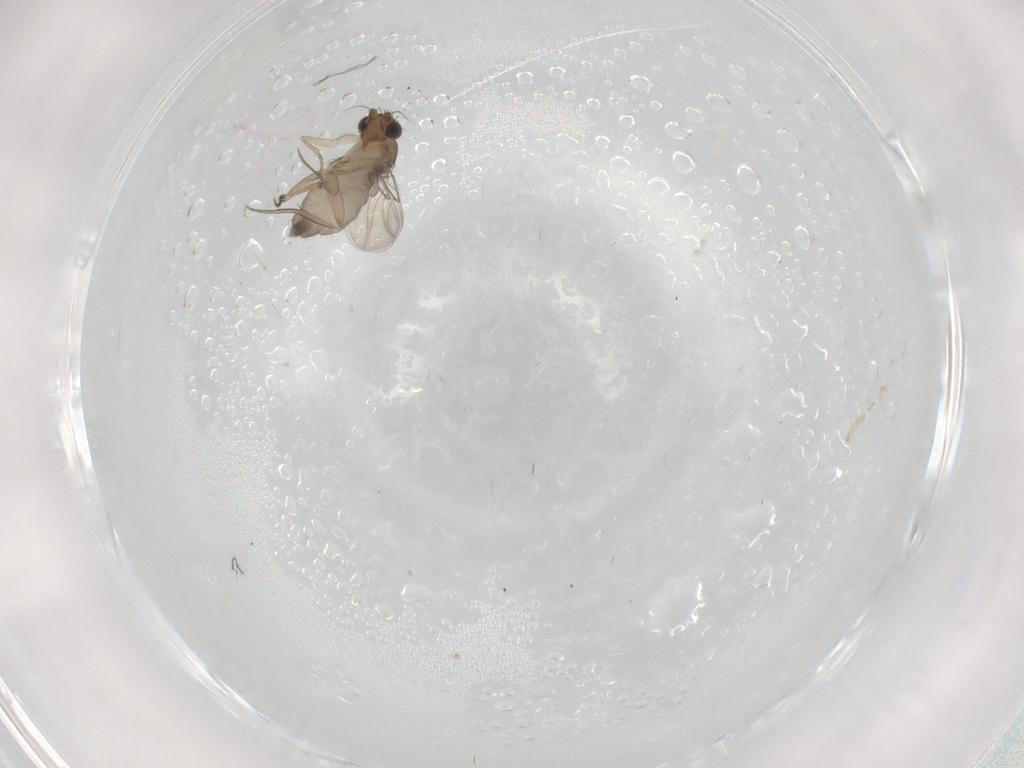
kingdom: Animalia
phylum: Arthropoda
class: Insecta
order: Diptera
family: Phoridae
